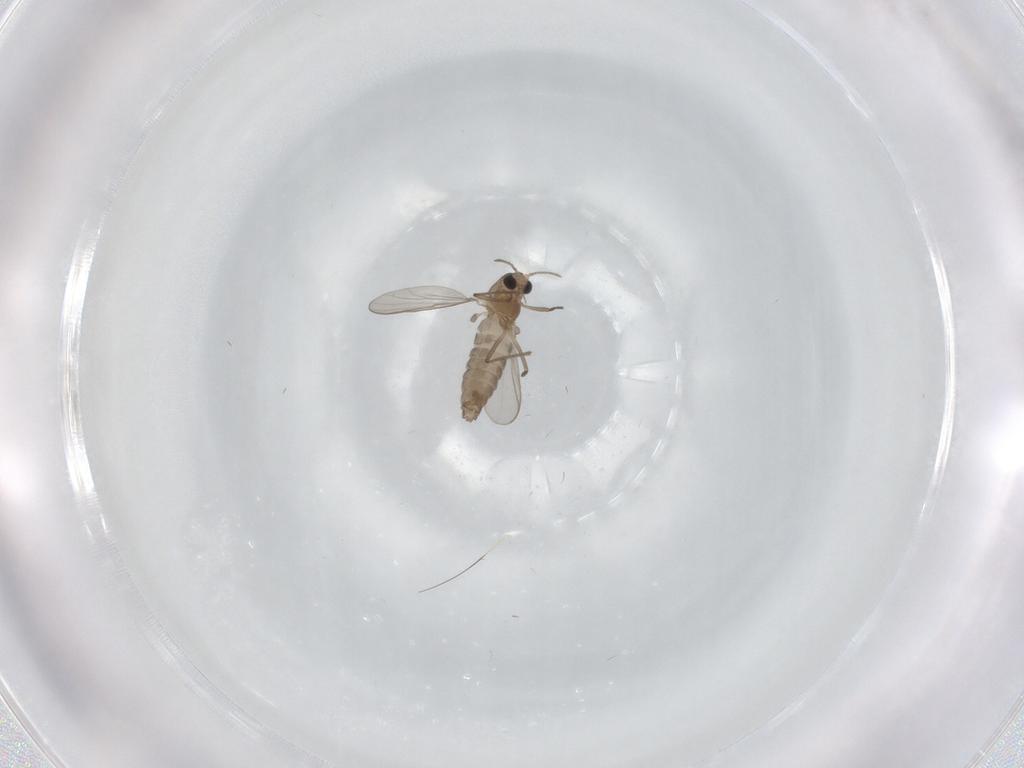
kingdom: Animalia
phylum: Arthropoda
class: Insecta
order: Diptera
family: Chironomidae
